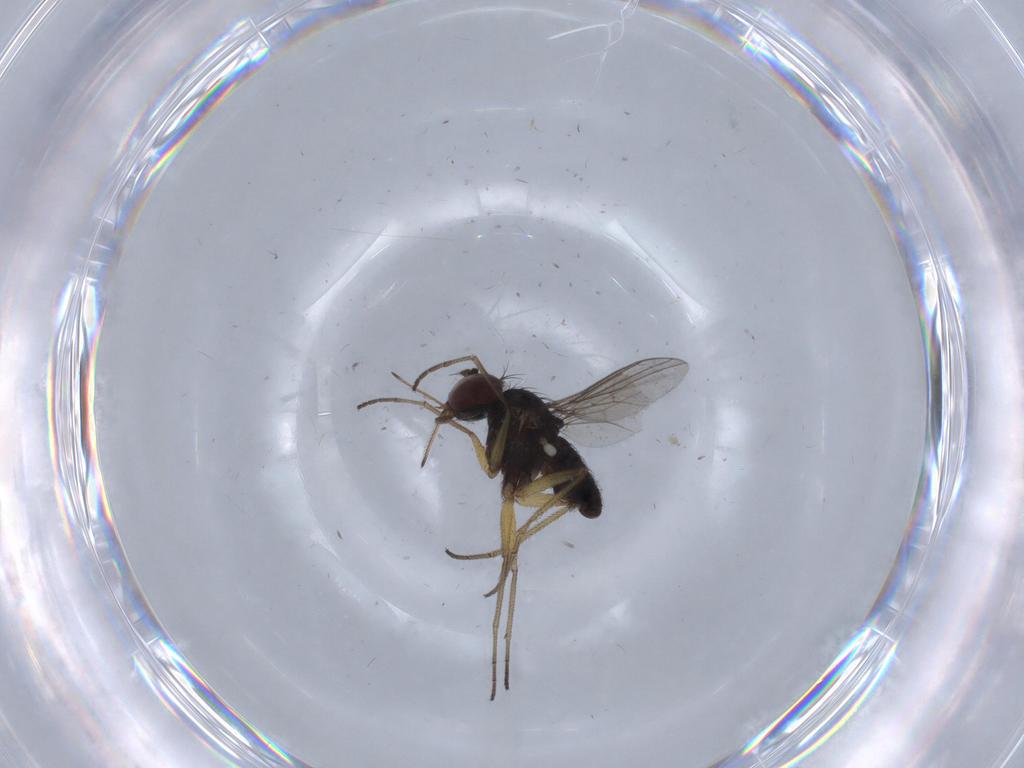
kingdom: Animalia
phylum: Arthropoda
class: Insecta
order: Diptera
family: Dolichopodidae
